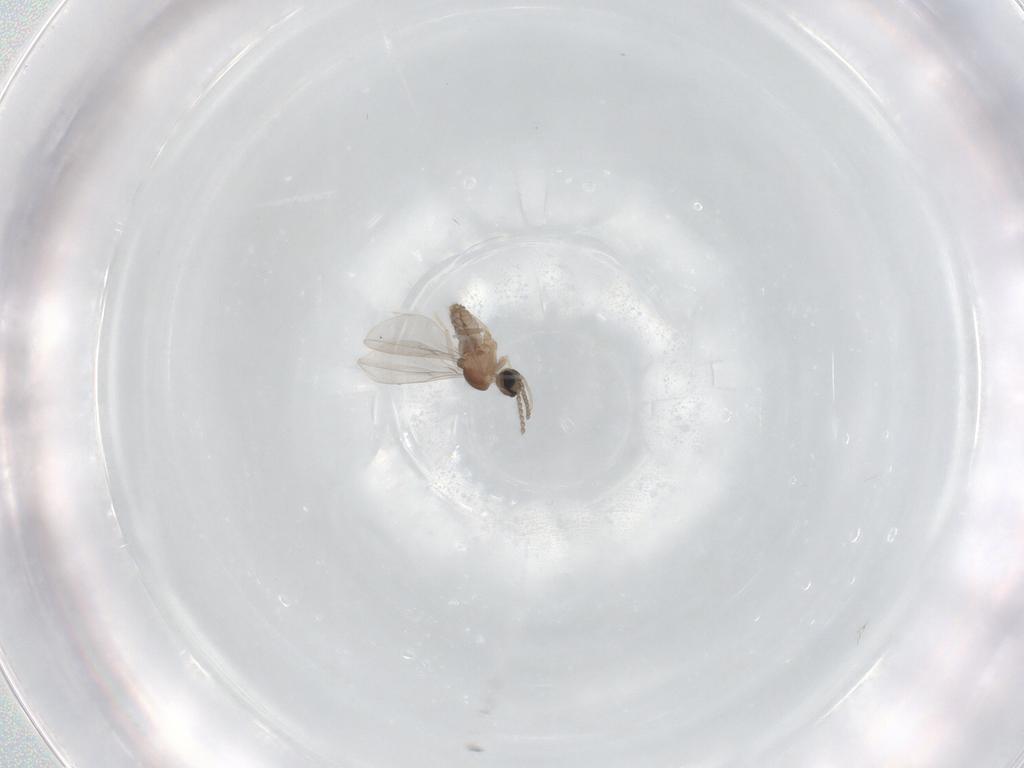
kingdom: Animalia
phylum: Arthropoda
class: Insecta
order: Diptera
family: Cecidomyiidae
